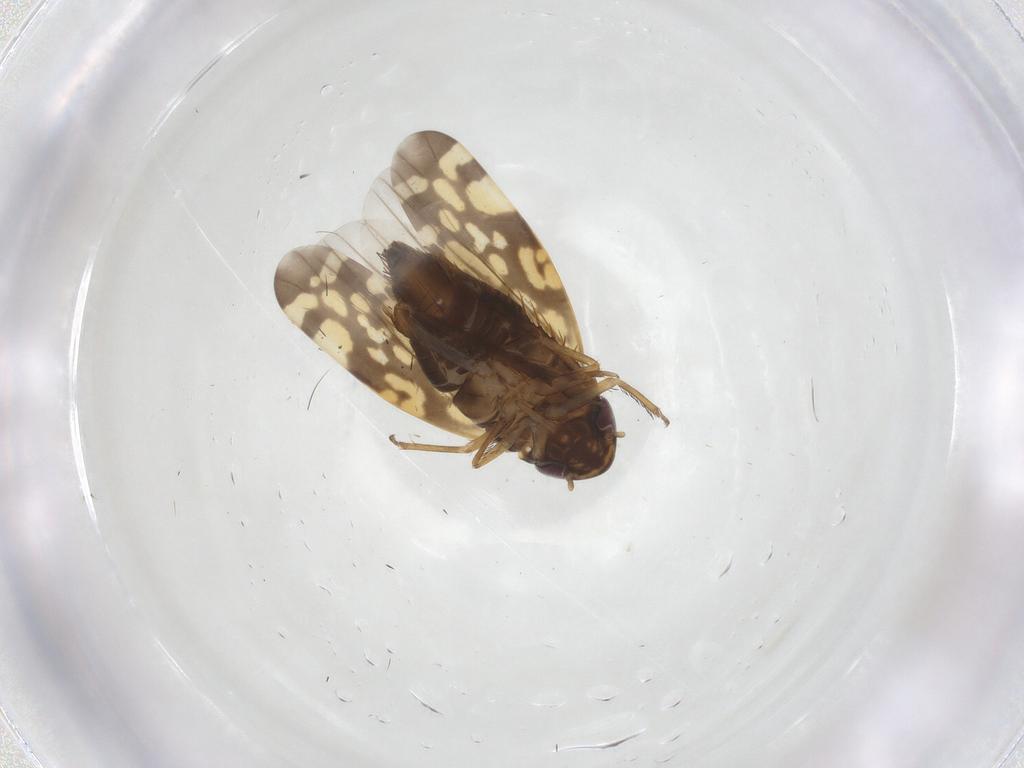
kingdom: Animalia
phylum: Arthropoda
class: Insecta
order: Hemiptera
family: Cicadellidae
